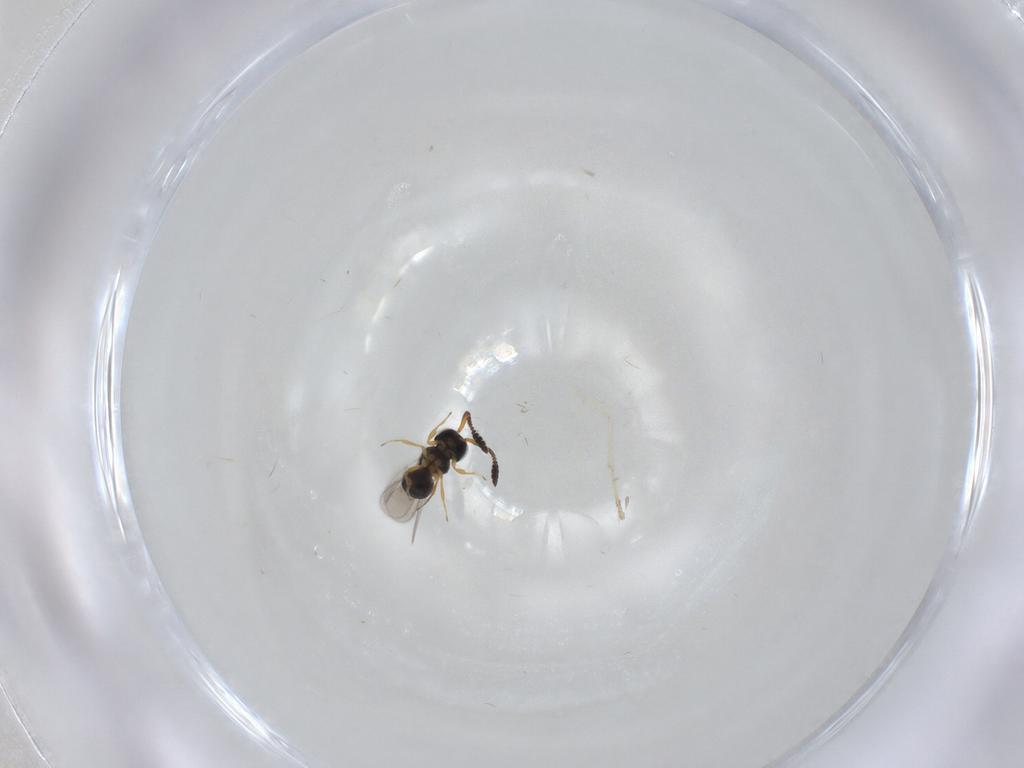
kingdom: Animalia
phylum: Arthropoda
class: Insecta
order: Hymenoptera
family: Scelionidae
